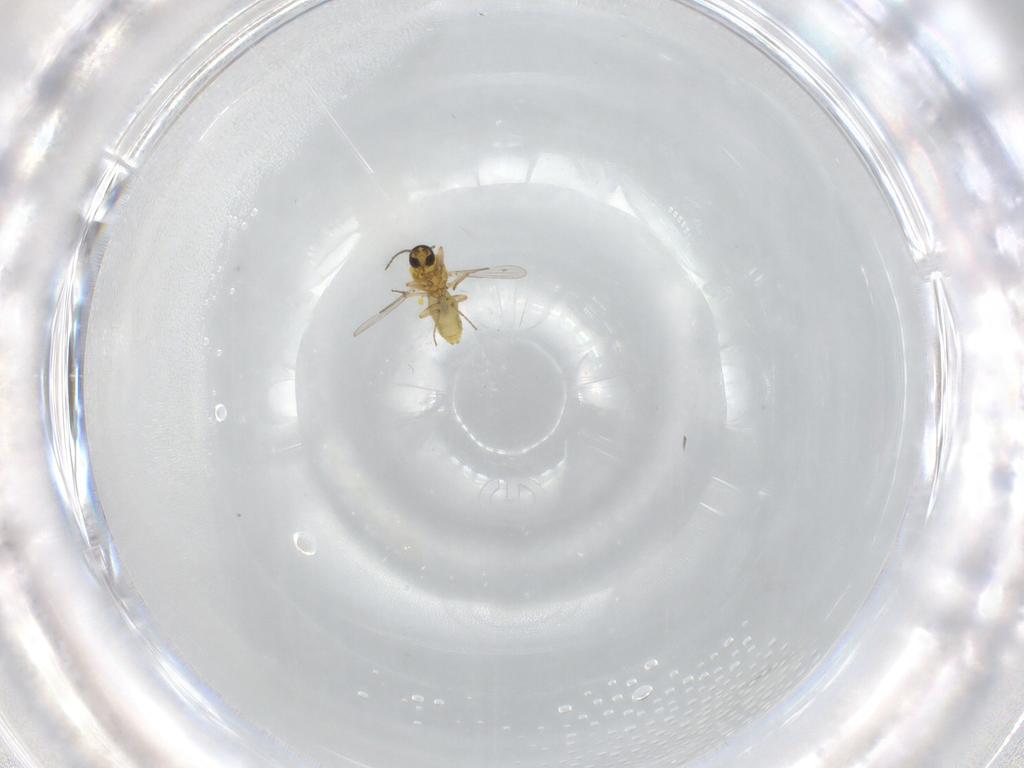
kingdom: Animalia
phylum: Arthropoda
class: Insecta
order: Diptera
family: Ceratopogonidae
